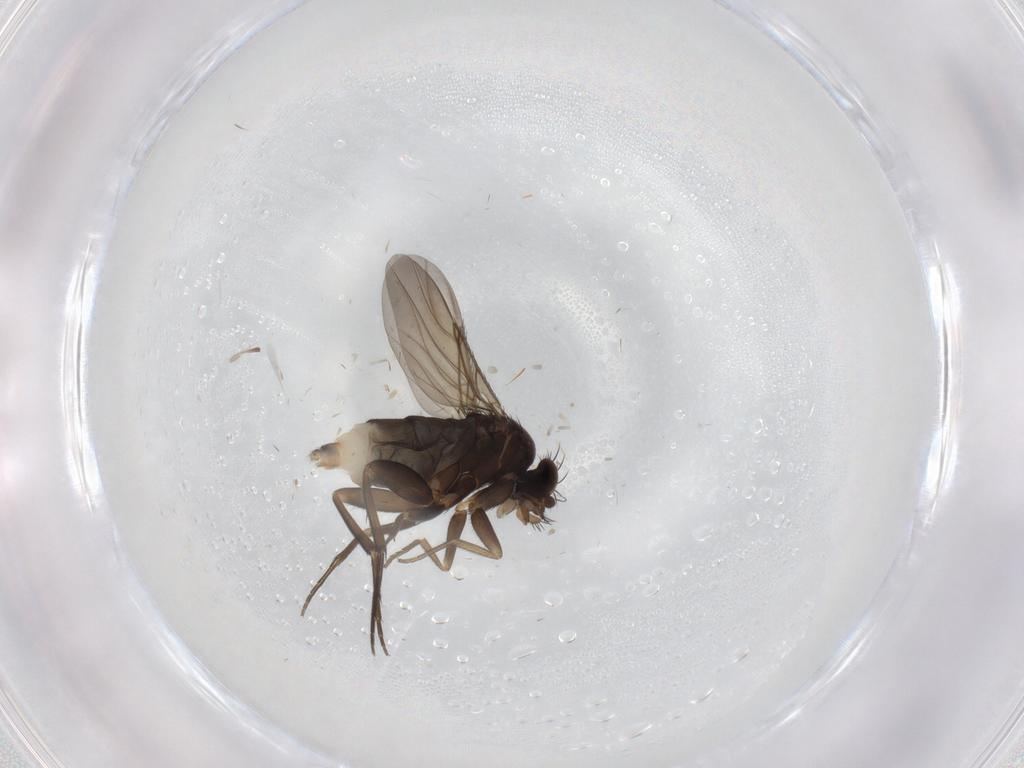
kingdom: Animalia
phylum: Arthropoda
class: Insecta
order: Diptera
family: Phoridae
